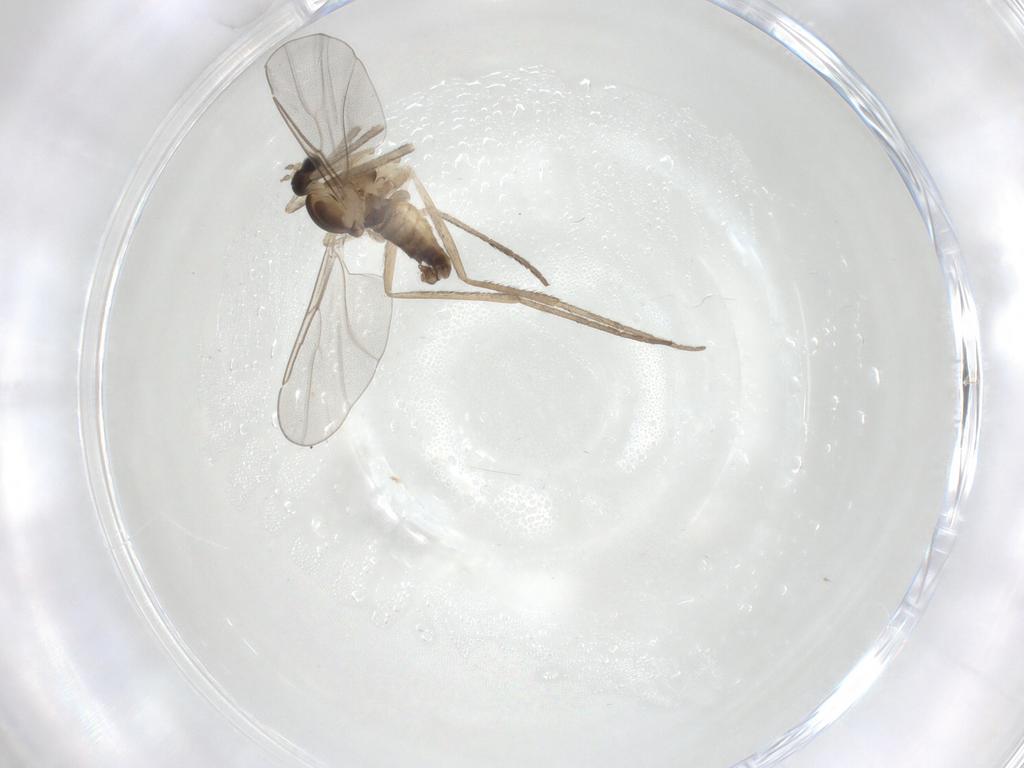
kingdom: Animalia
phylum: Arthropoda
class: Insecta
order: Diptera
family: Cecidomyiidae
